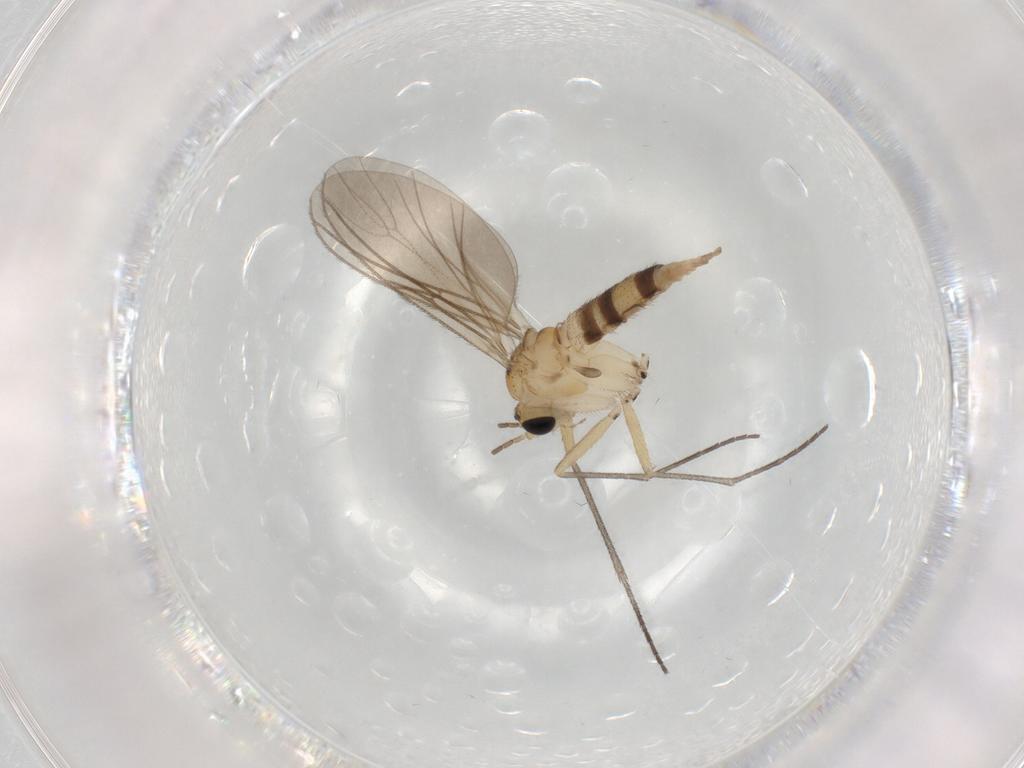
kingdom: Animalia
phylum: Arthropoda
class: Insecta
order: Diptera
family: Sciaridae
